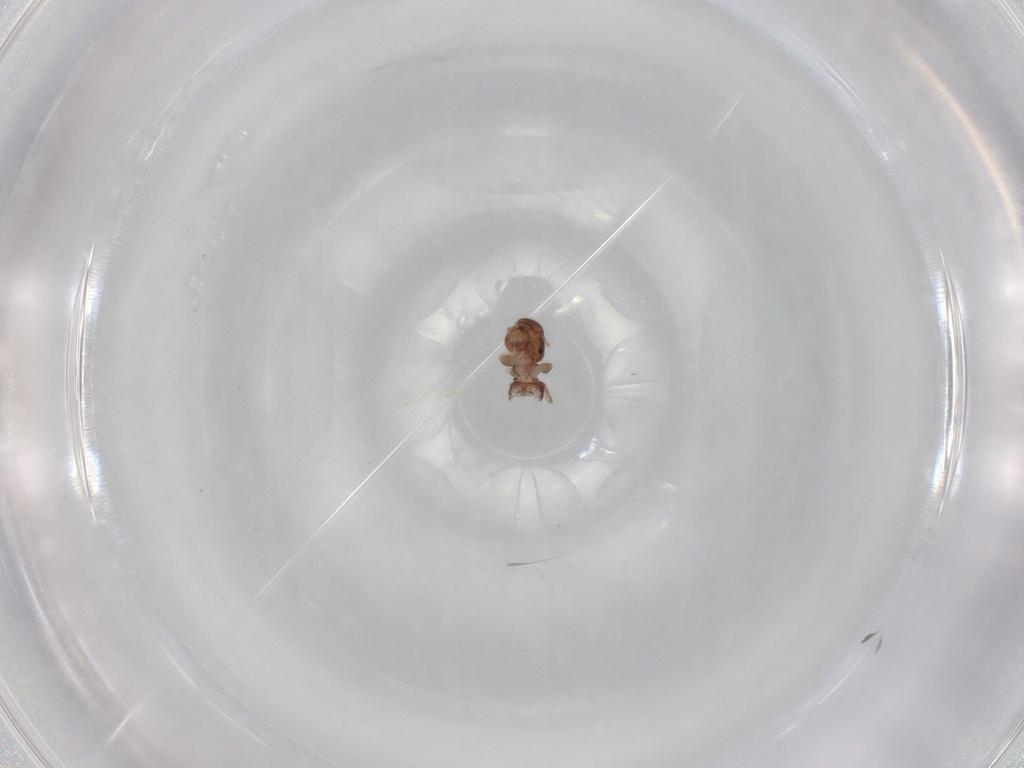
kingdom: Animalia
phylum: Arthropoda
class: Insecta
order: Psocodea
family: Archipsocidae
